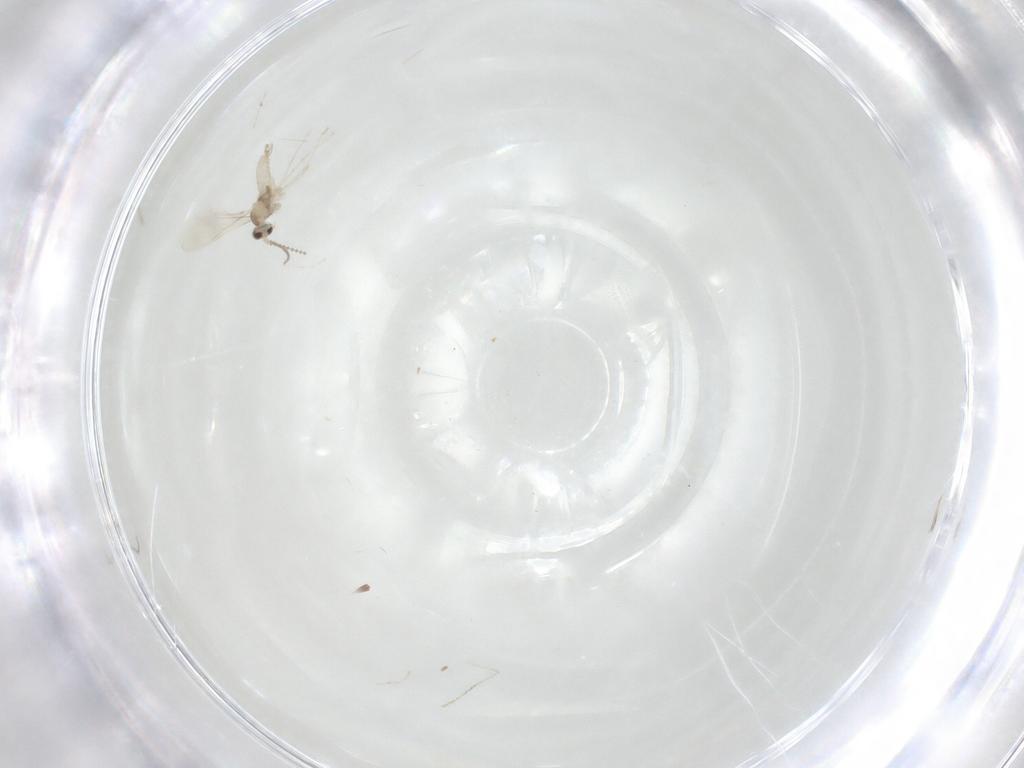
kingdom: Animalia
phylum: Arthropoda
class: Insecta
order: Diptera
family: Cecidomyiidae
